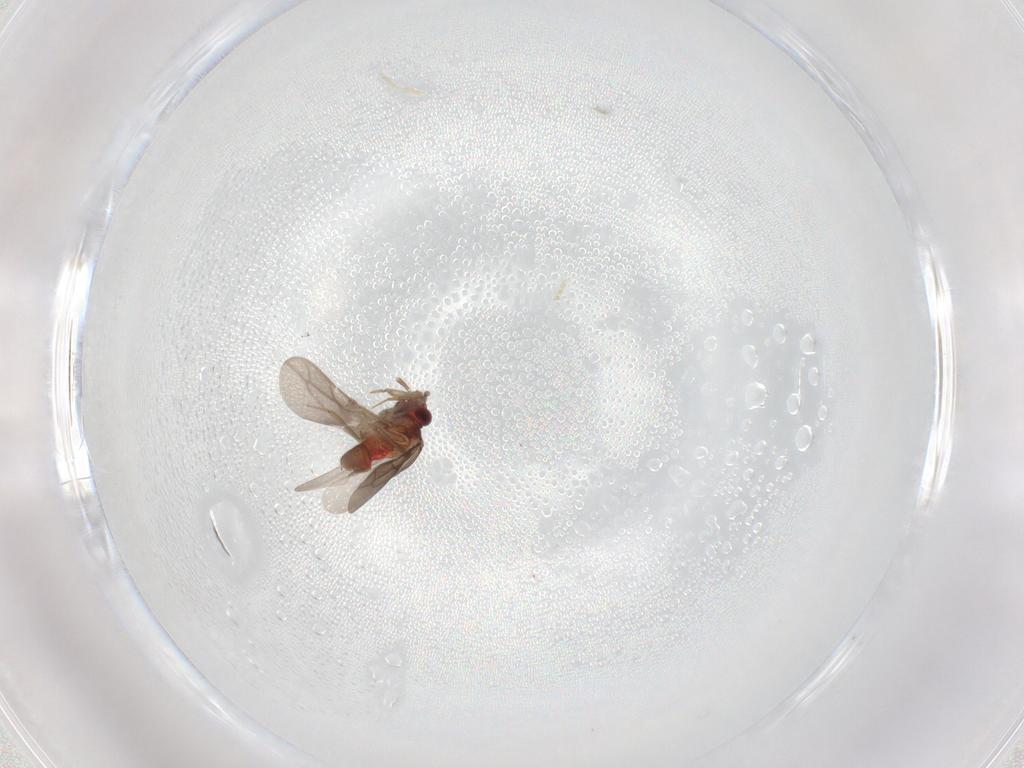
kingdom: Animalia
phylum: Arthropoda
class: Insecta
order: Hemiptera
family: Ceratocombidae
